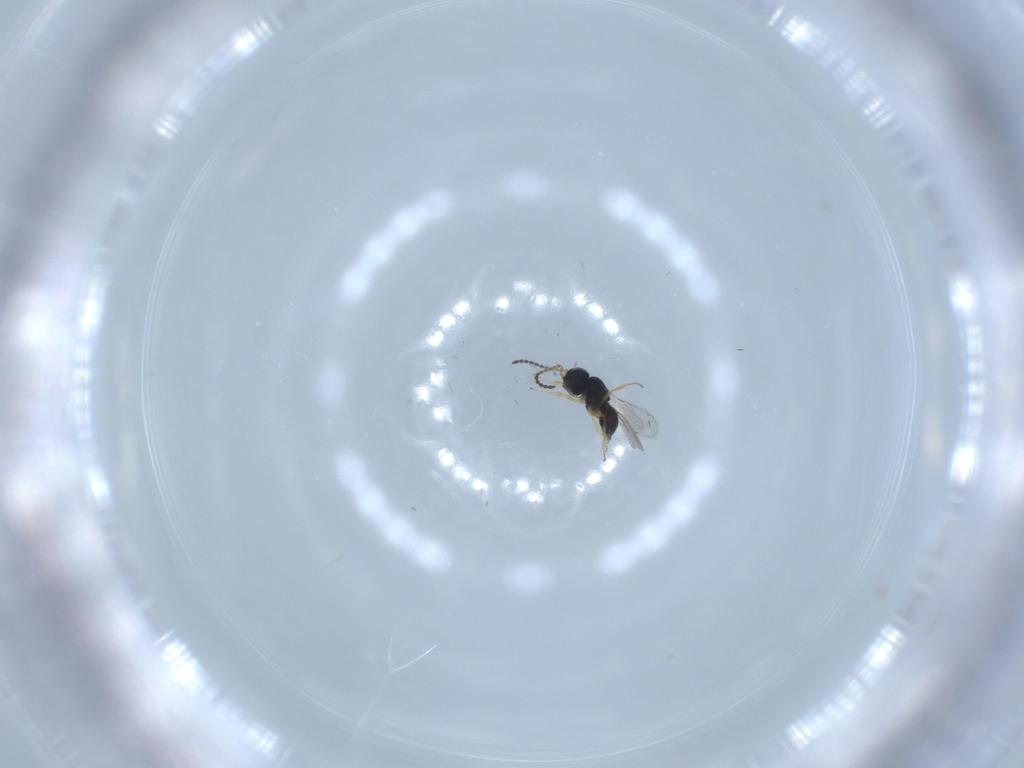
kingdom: Animalia
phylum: Arthropoda
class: Insecta
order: Hymenoptera
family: Scelionidae
